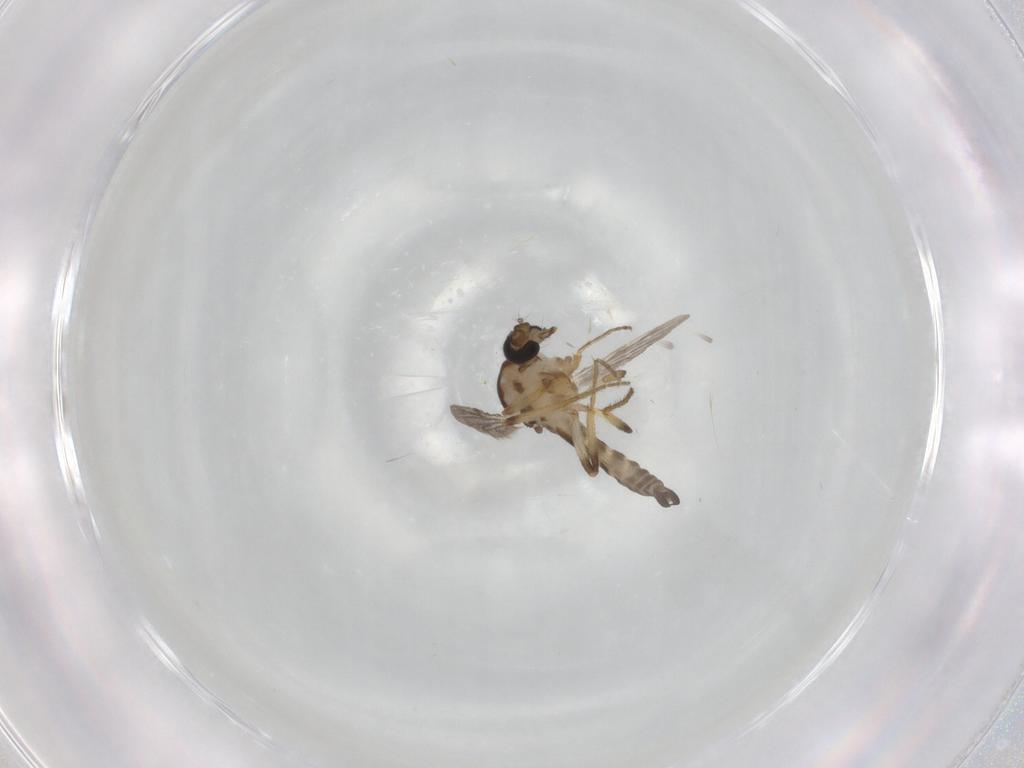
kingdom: Animalia
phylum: Arthropoda
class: Insecta
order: Diptera
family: Ceratopogonidae
